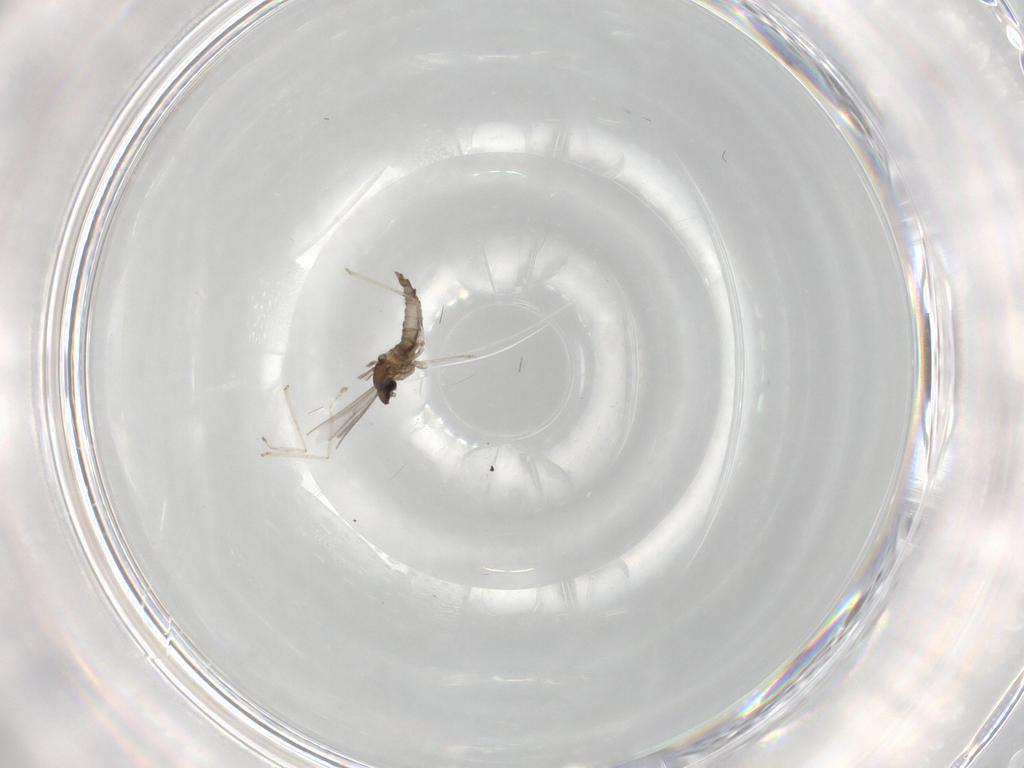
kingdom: Animalia
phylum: Arthropoda
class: Insecta
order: Diptera
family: Cecidomyiidae
